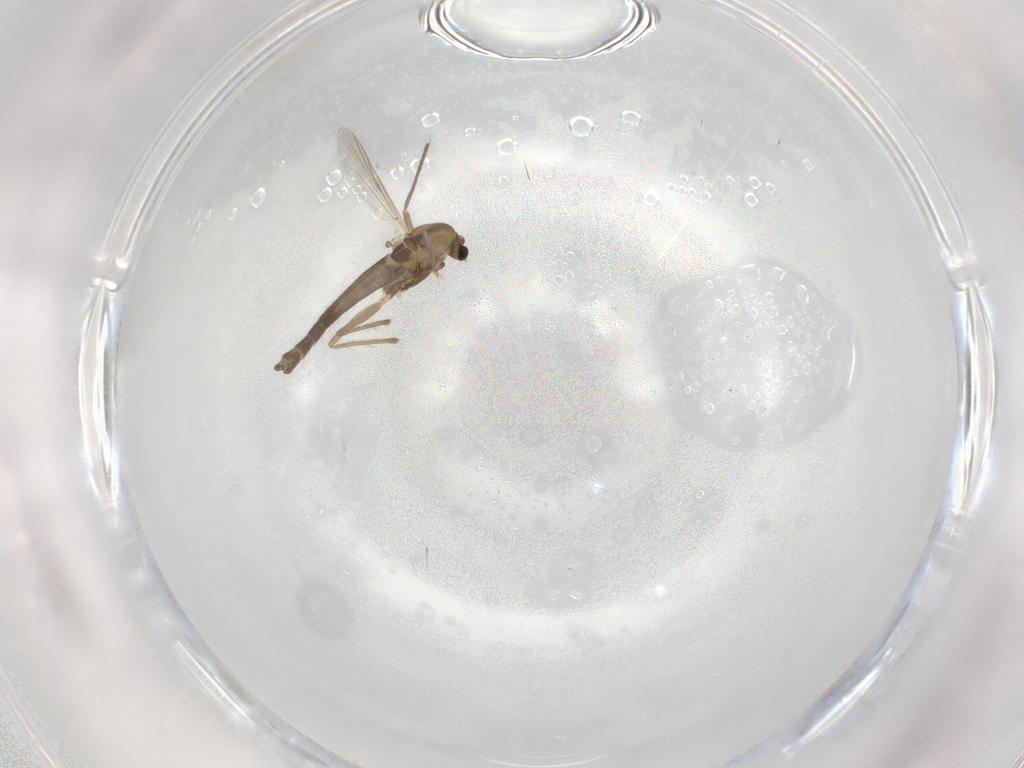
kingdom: Animalia
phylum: Arthropoda
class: Insecta
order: Diptera
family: Chironomidae
